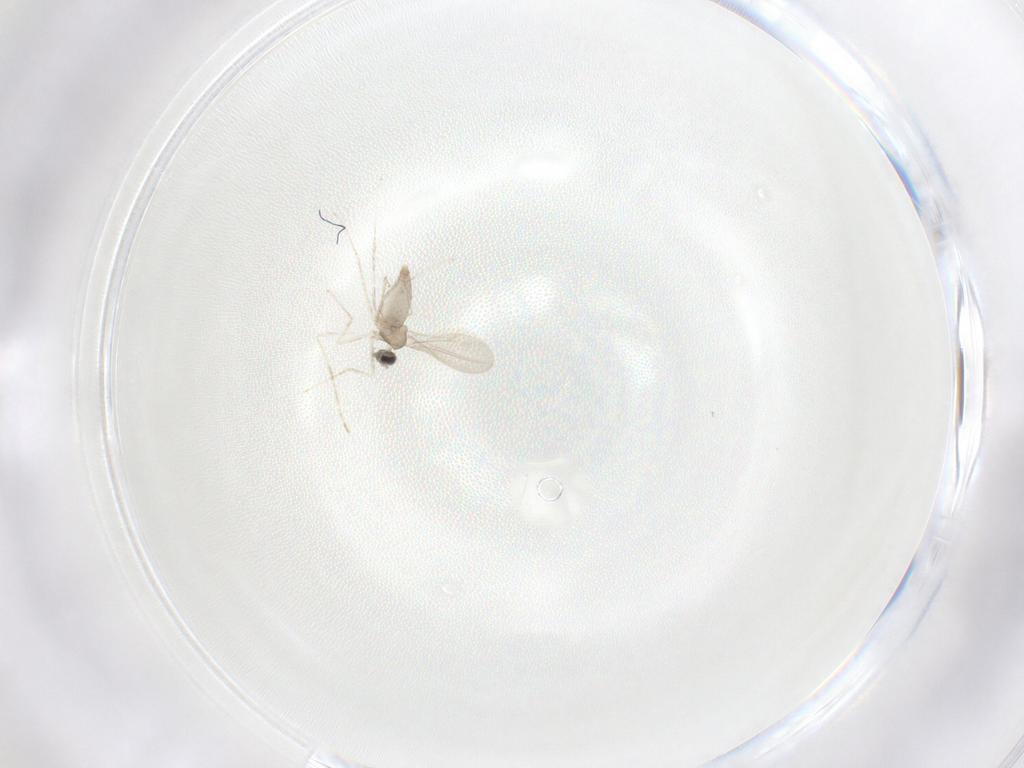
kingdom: Animalia
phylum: Arthropoda
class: Insecta
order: Diptera
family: Cecidomyiidae
